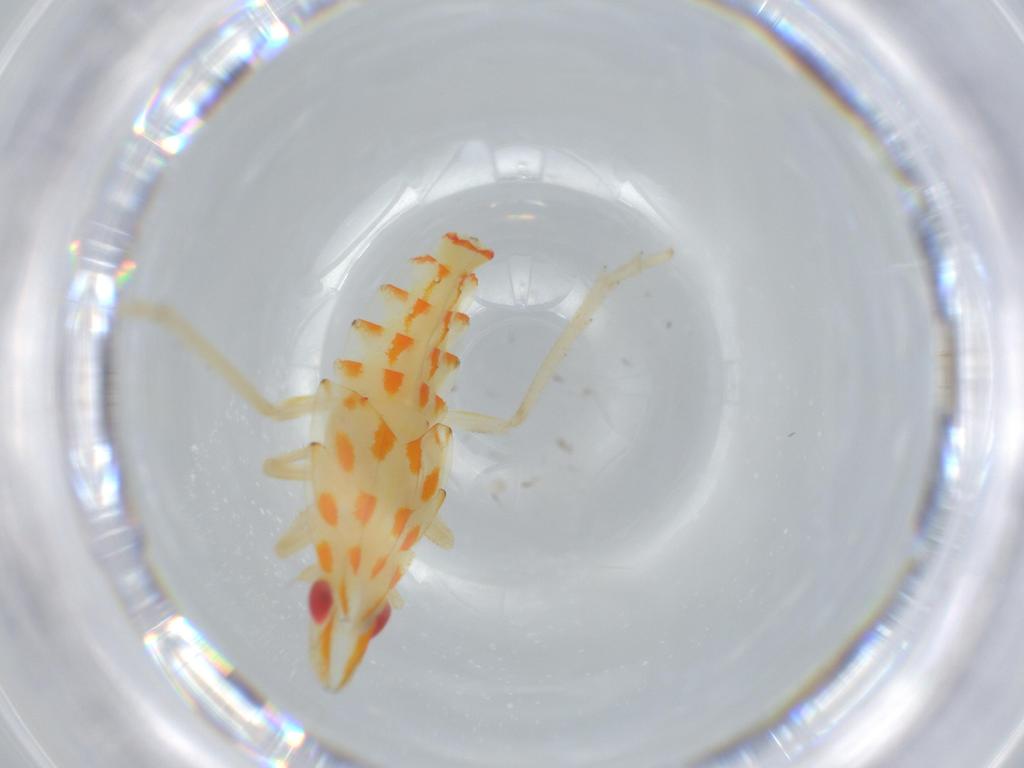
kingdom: Animalia
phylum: Arthropoda
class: Insecta
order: Hemiptera
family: Tropiduchidae
